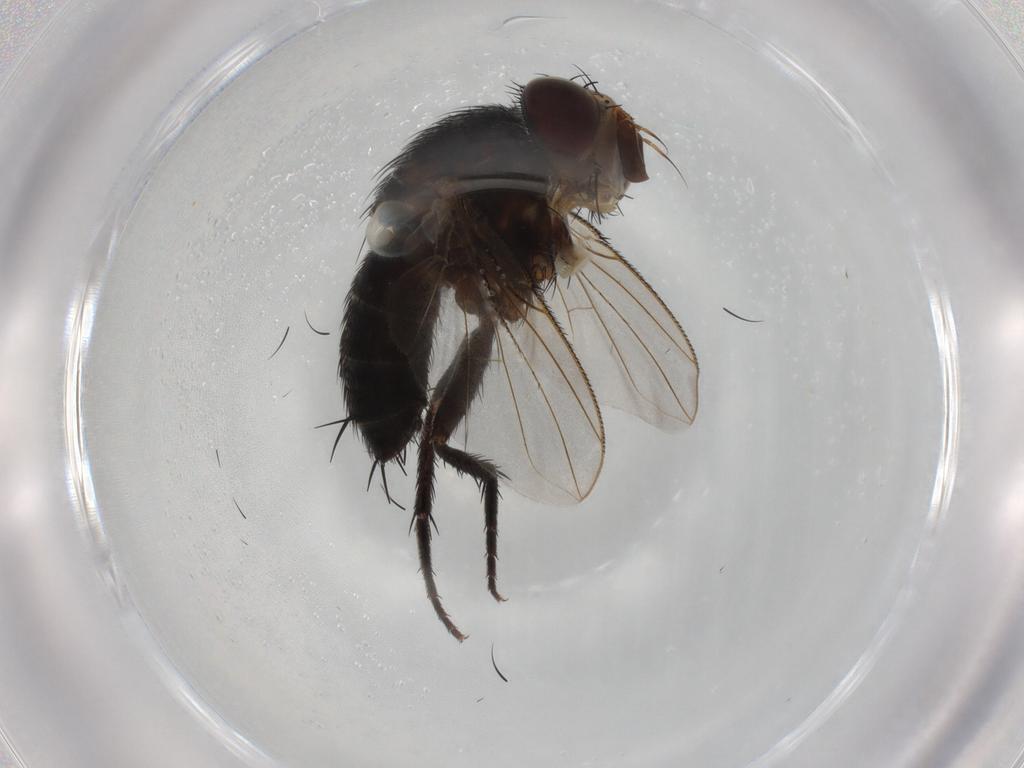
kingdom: Animalia
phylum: Arthropoda
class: Insecta
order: Diptera
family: Tachinidae
